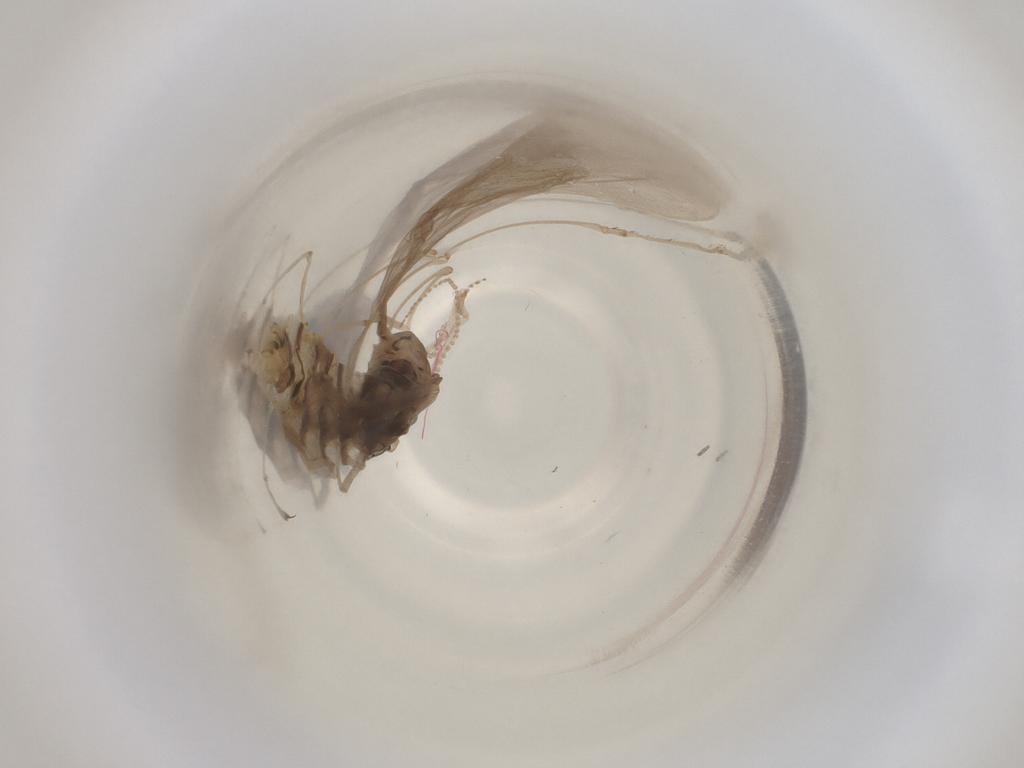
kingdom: Animalia
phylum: Arthropoda
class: Insecta
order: Diptera
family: Cecidomyiidae
